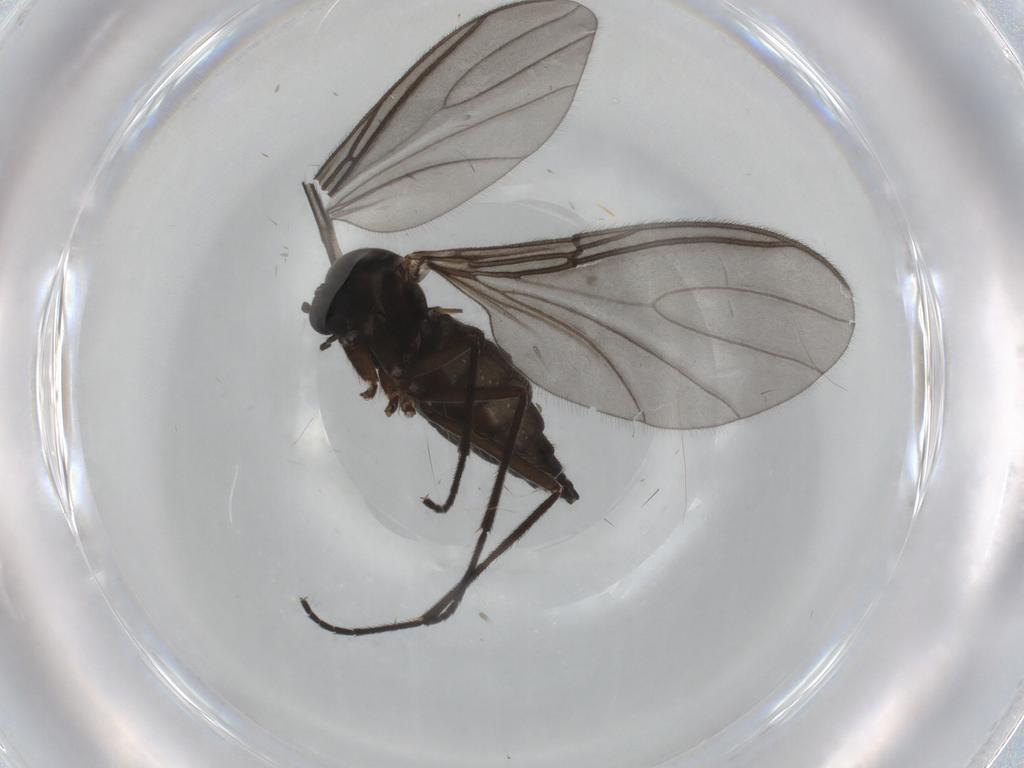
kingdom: Animalia
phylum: Arthropoda
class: Insecta
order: Diptera
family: Sciaridae
